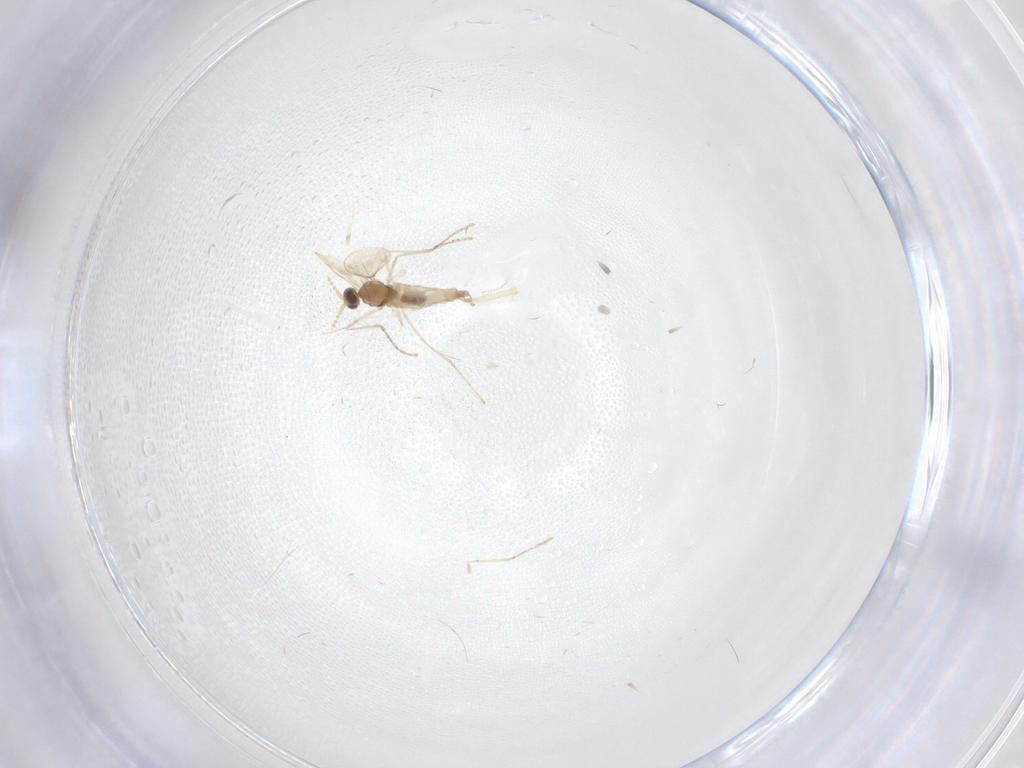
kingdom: Animalia
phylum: Arthropoda
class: Insecta
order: Diptera
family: Cecidomyiidae
